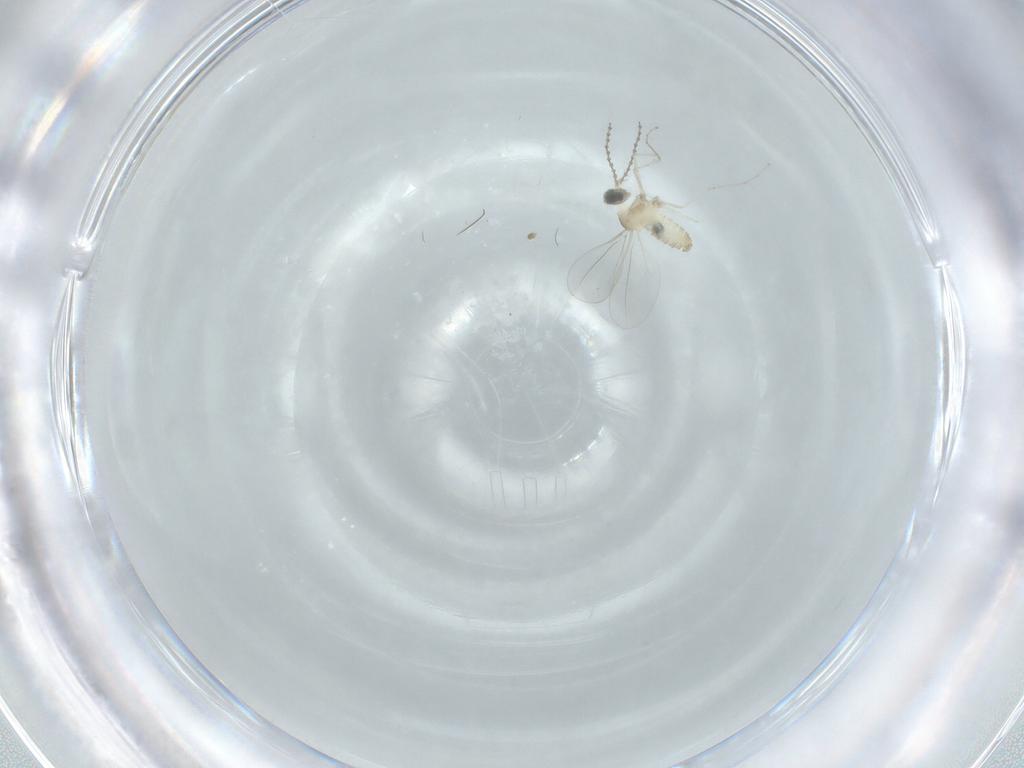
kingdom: Animalia
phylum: Arthropoda
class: Insecta
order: Diptera
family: Cecidomyiidae
